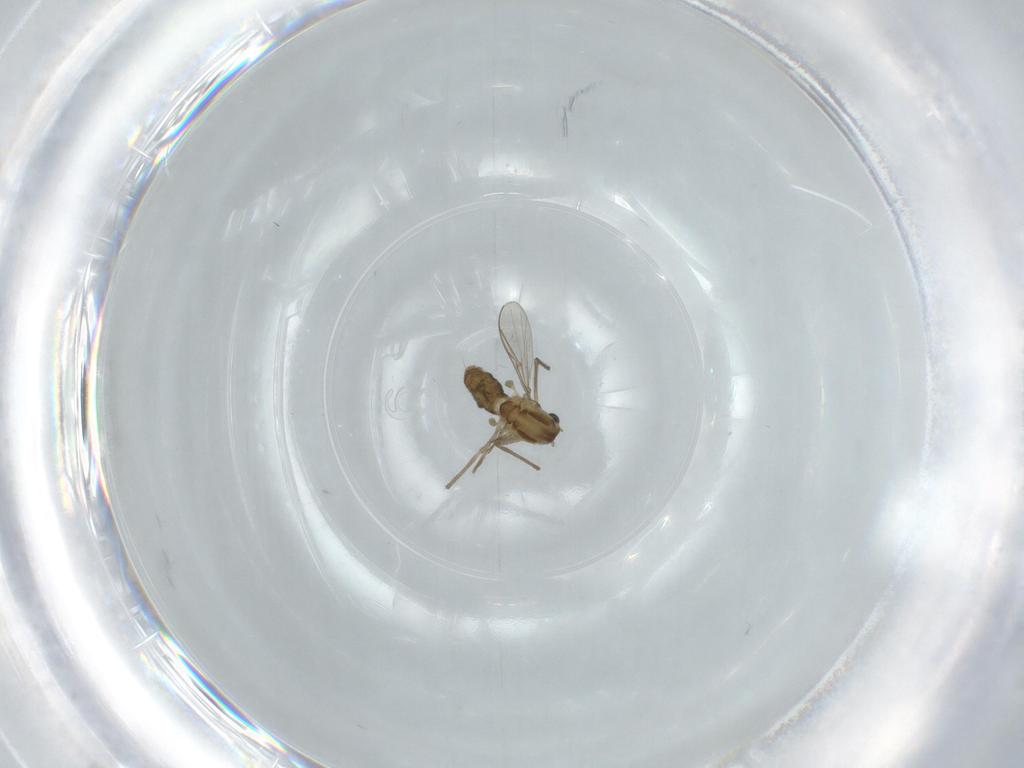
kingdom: Animalia
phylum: Arthropoda
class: Insecta
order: Diptera
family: Chironomidae
